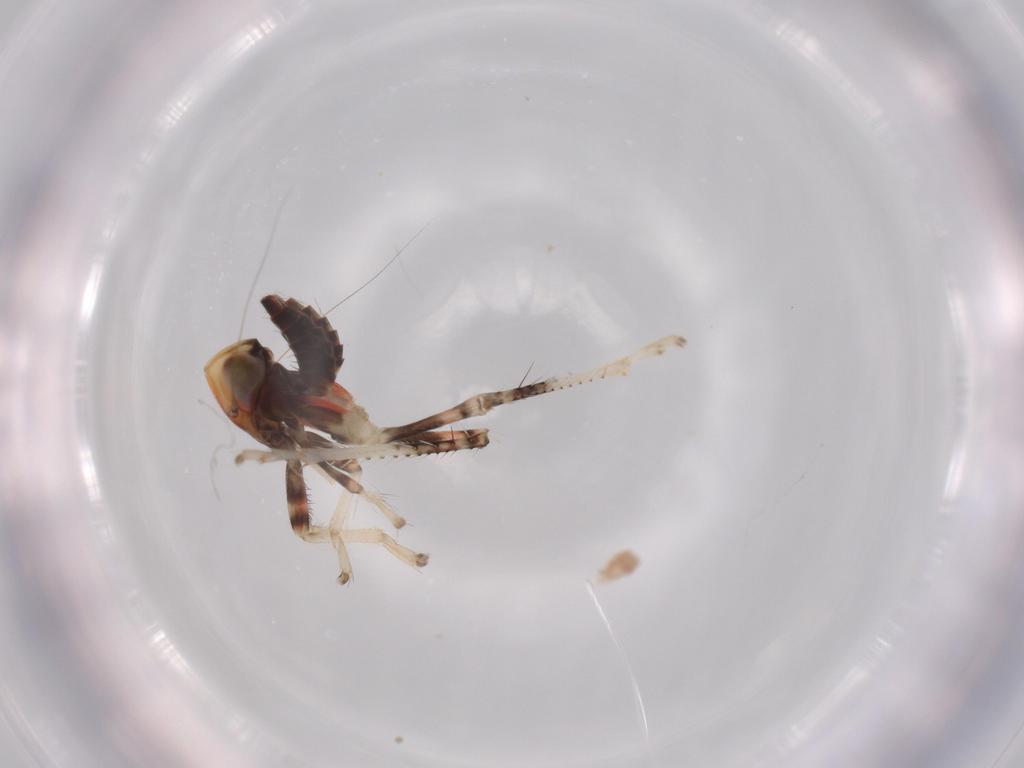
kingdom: Animalia
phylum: Arthropoda
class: Insecta
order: Hemiptera
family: Cicadellidae
